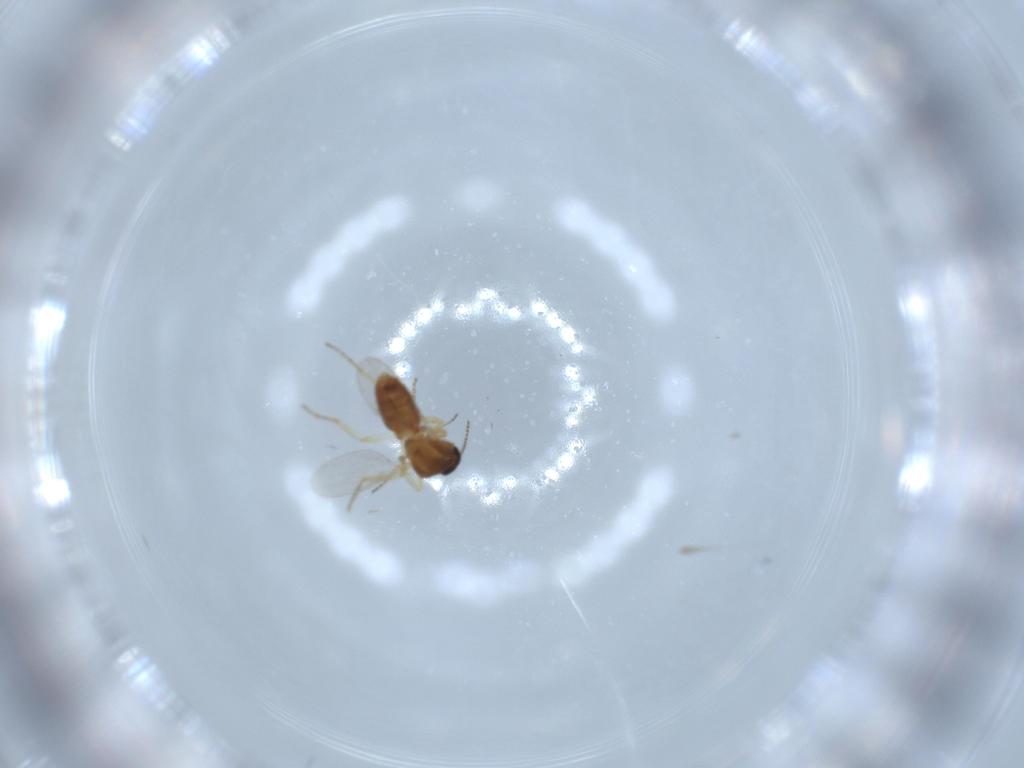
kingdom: Animalia
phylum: Arthropoda
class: Insecta
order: Diptera
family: Ceratopogonidae
